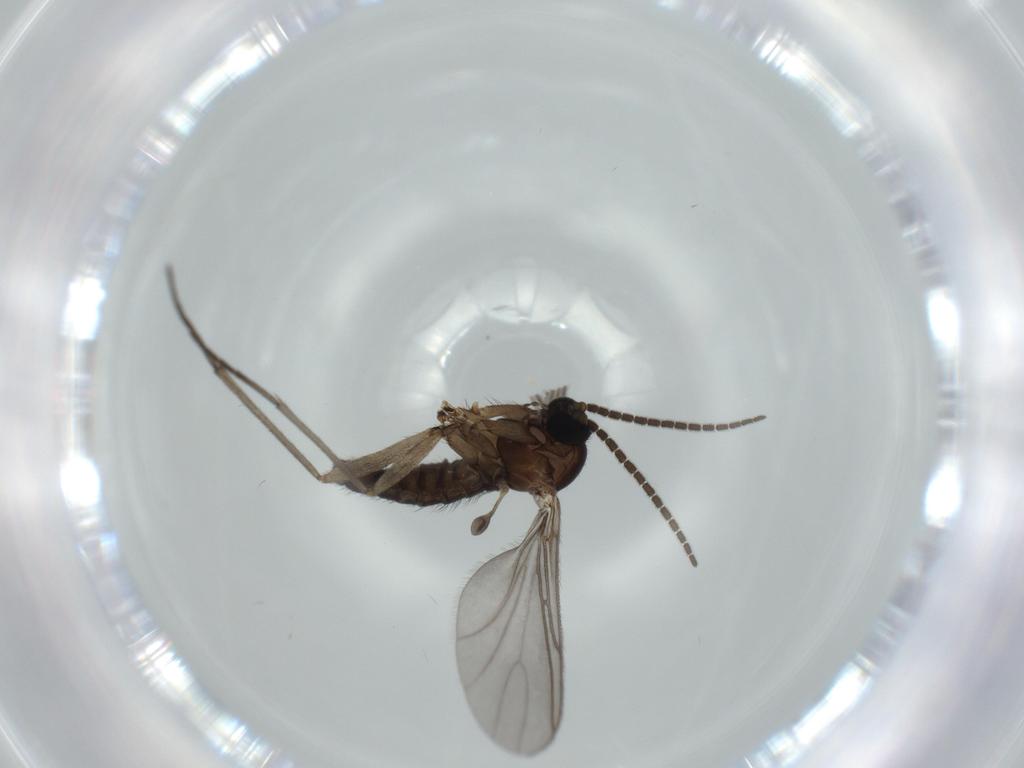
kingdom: Animalia
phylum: Arthropoda
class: Insecta
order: Diptera
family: Sciaridae
